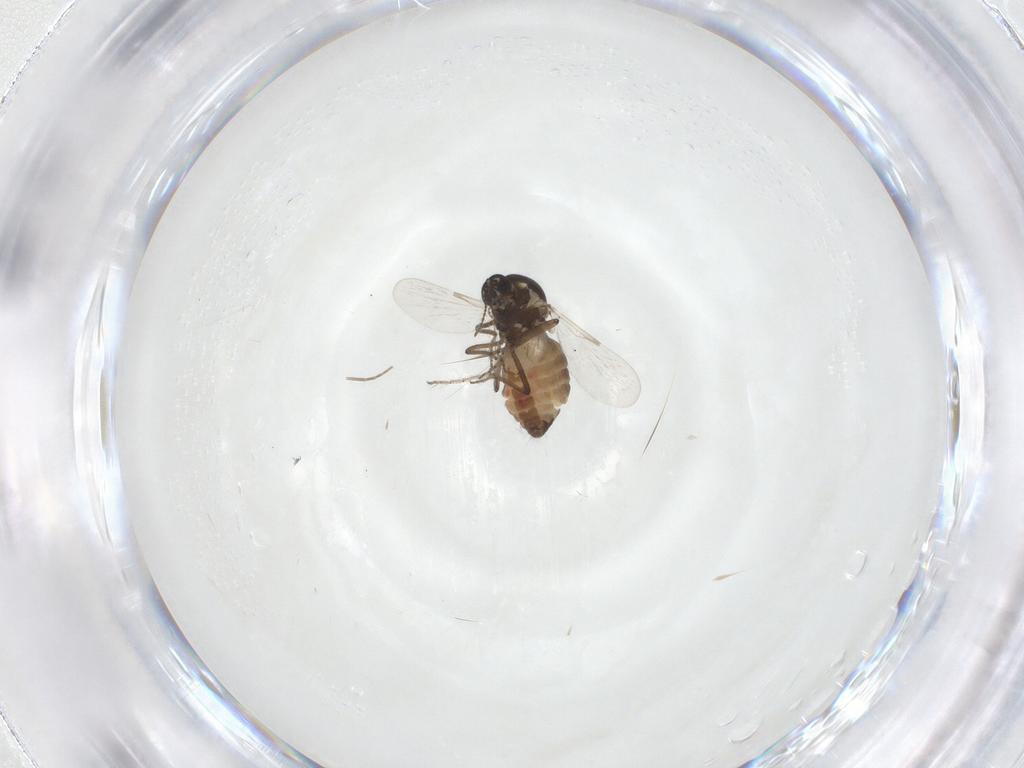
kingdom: Animalia
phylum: Arthropoda
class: Insecta
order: Diptera
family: Ceratopogonidae
